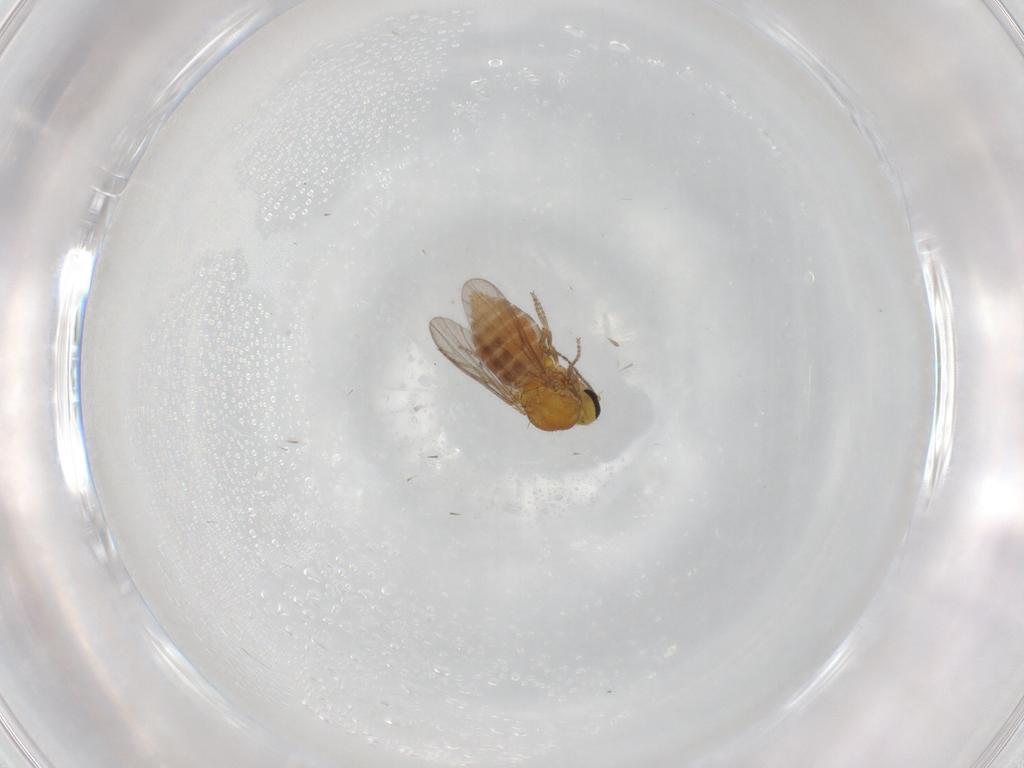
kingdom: Animalia
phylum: Arthropoda
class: Insecta
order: Diptera
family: Ceratopogonidae
